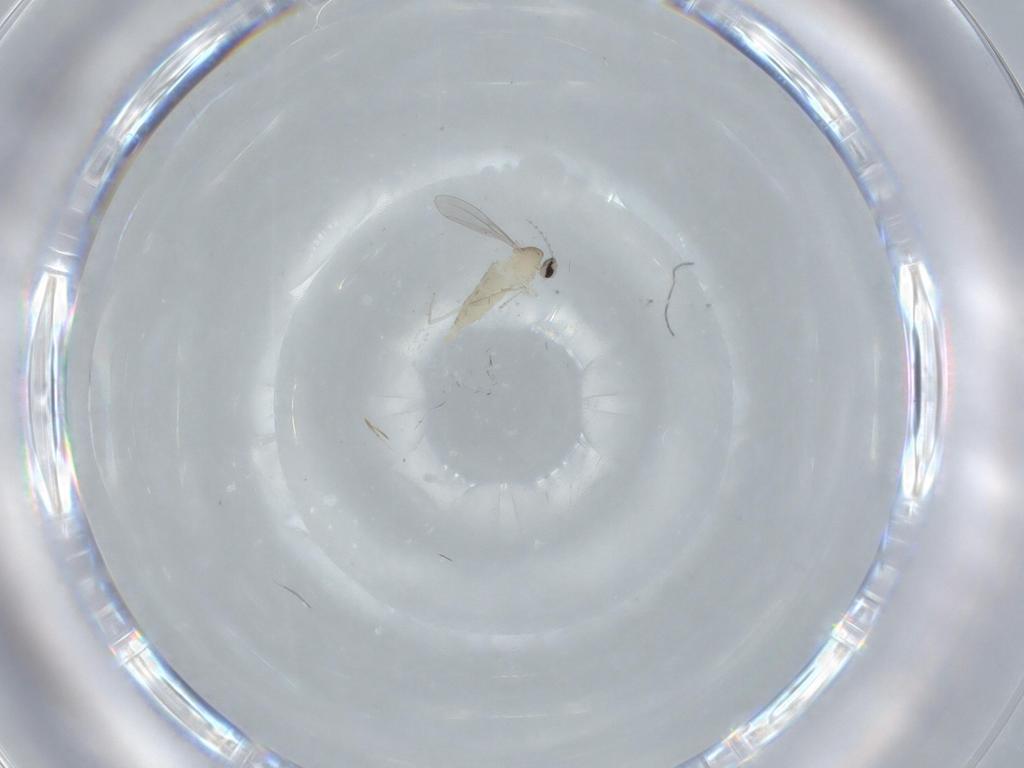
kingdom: Animalia
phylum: Arthropoda
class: Insecta
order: Diptera
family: Cecidomyiidae
